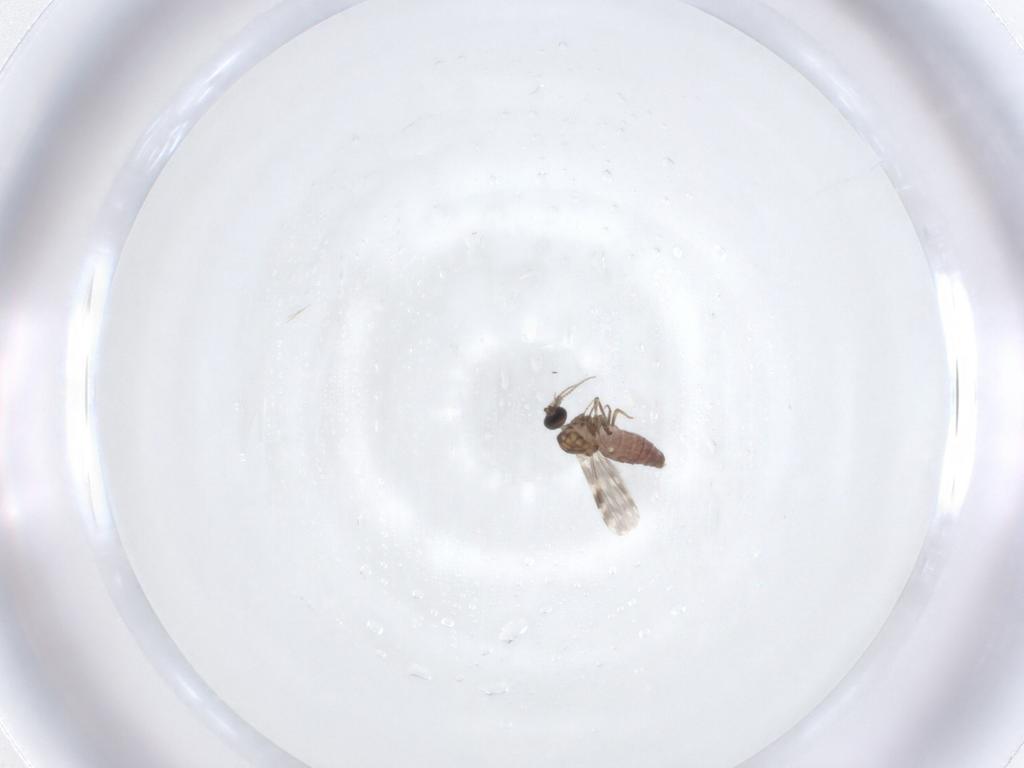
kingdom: Animalia
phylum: Arthropoda
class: Insecta
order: Diptera
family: Ceratopogonidae
